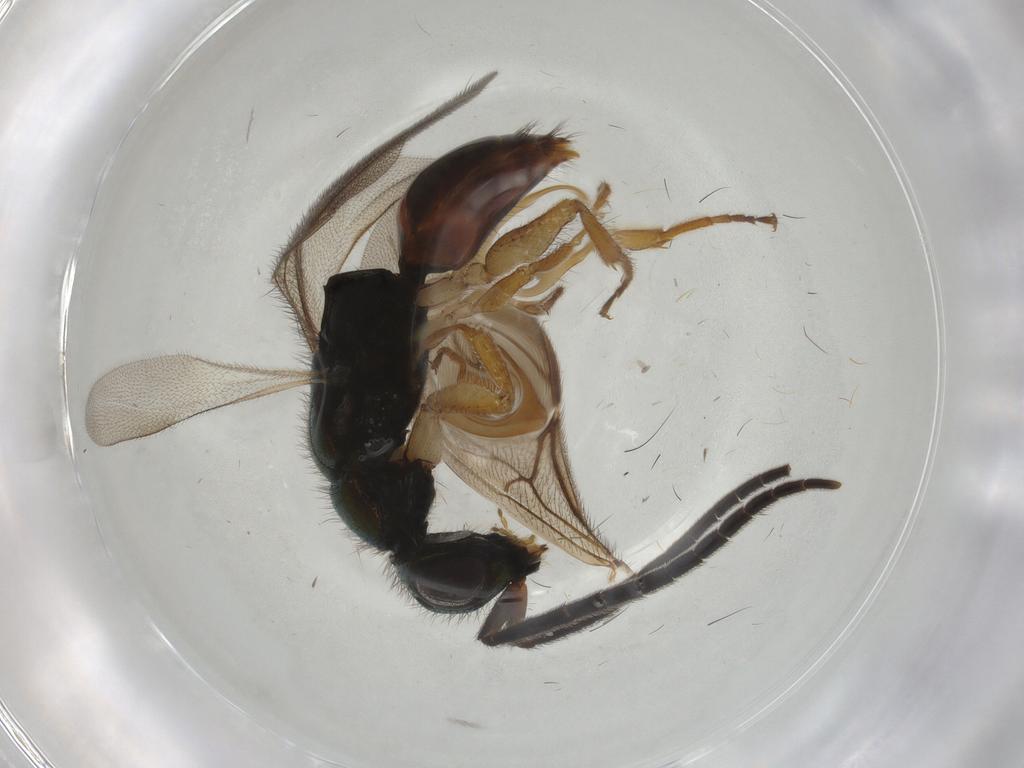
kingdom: Animalia
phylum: Arthropoda
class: Insecta
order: Hymenoptera
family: Chrysididae
